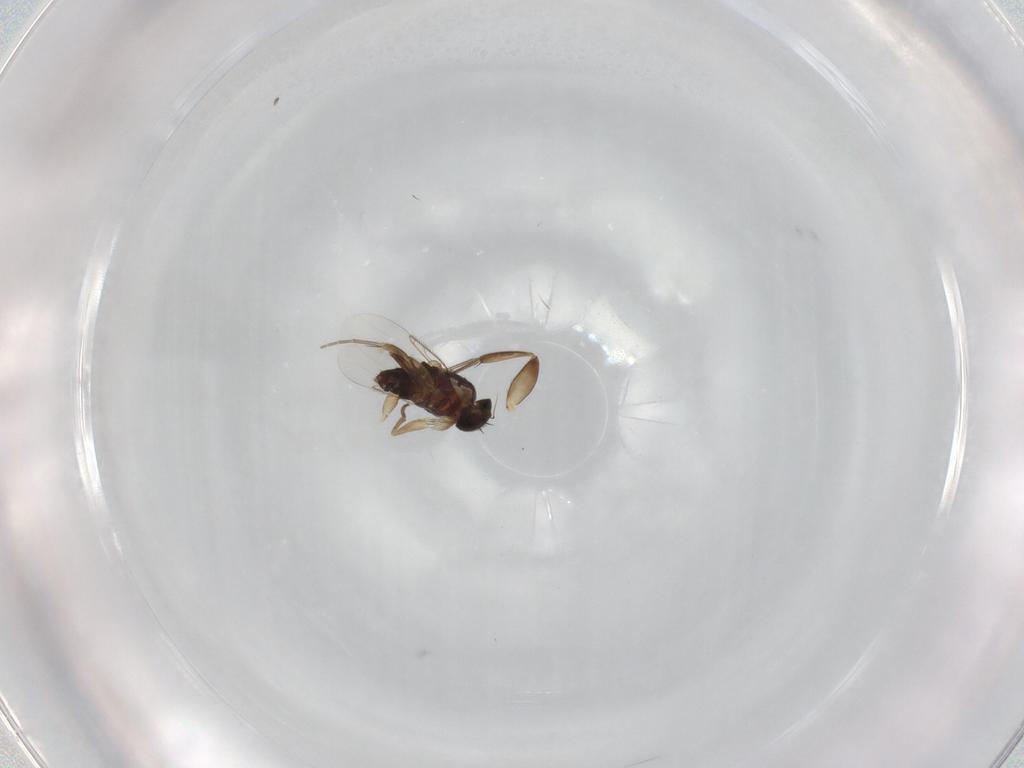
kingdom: Animalia
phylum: Arthropoda
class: Insecta
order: Diptera
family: Phoridae
